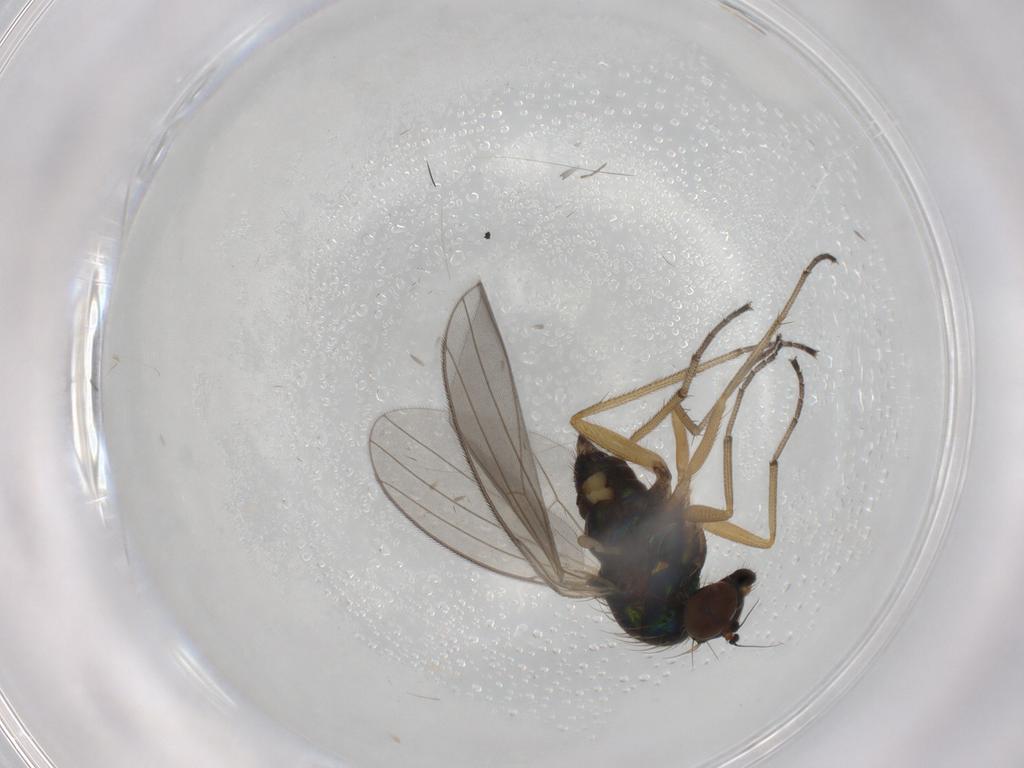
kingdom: Animalia
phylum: Arthropoda
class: Insecta
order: Diptera
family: Dolichopodidae
